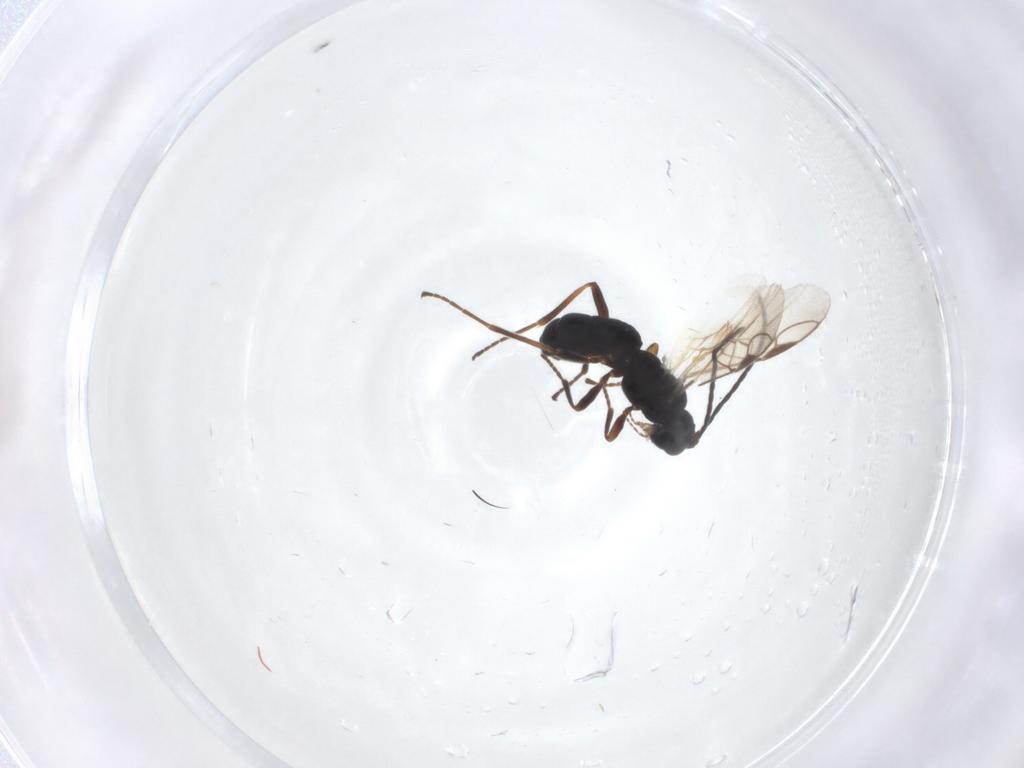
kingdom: Animalia
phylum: Arthropoda
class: Insecta
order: Hymenoptera
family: Braconidae
